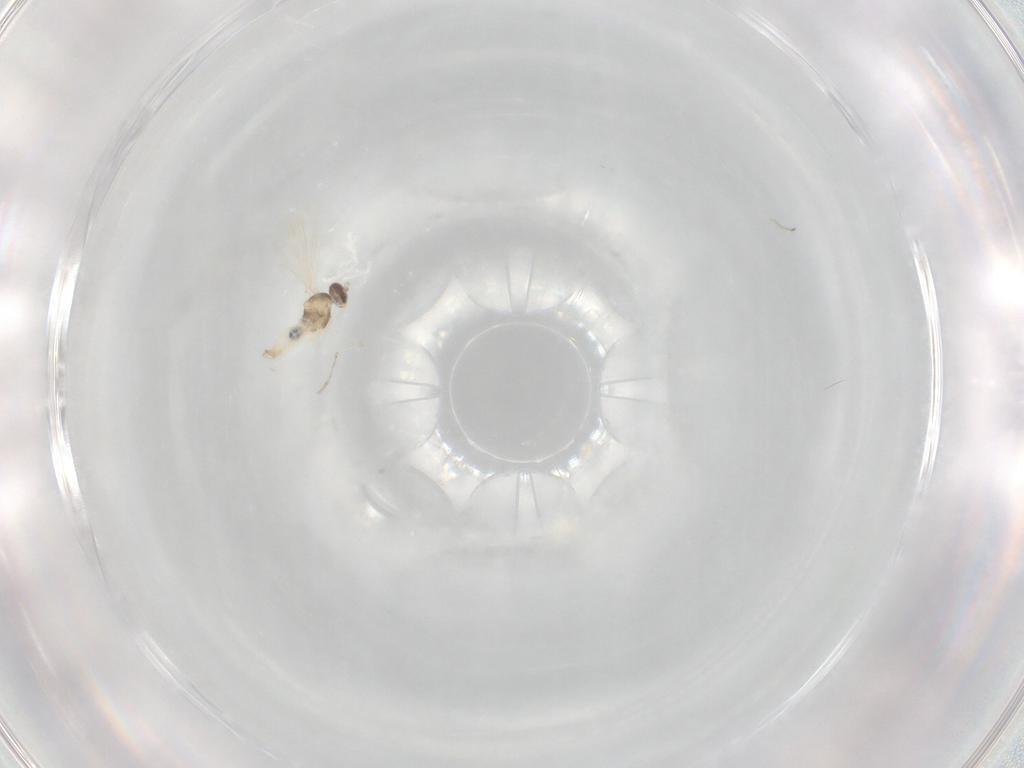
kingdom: Animalia
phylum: Arthropoda
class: Insecta
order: Diptera
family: Cecidomyiidae
